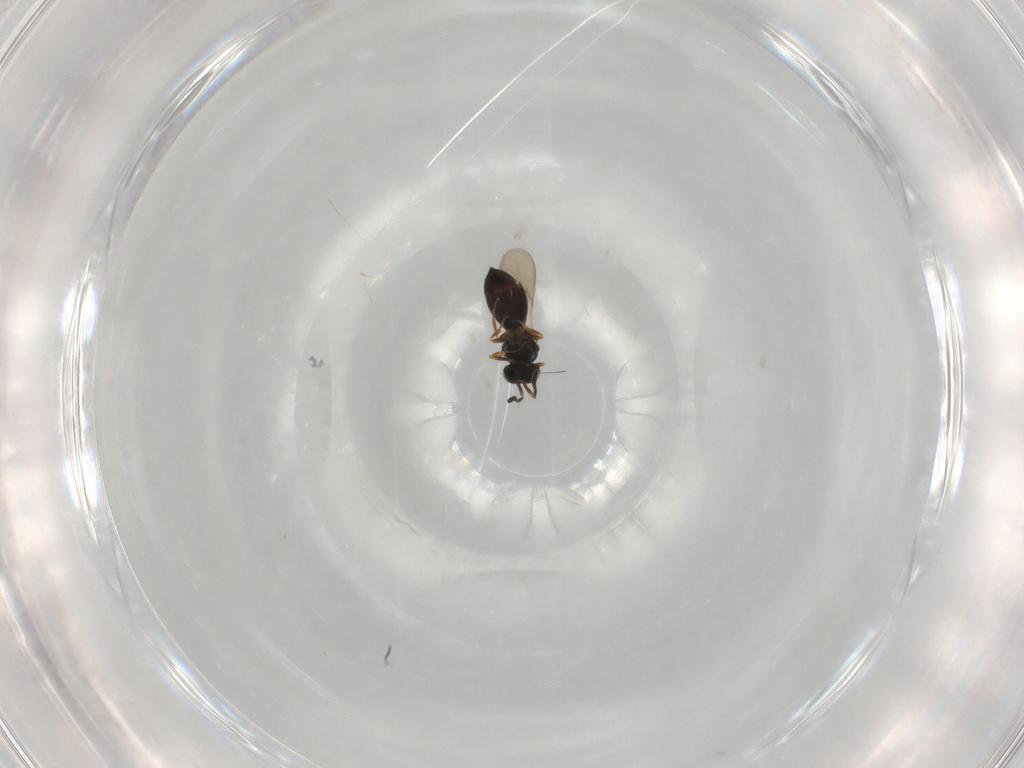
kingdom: Animalia
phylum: Arthropoda
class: Insecta
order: Hymenoptera
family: Scelionidae
